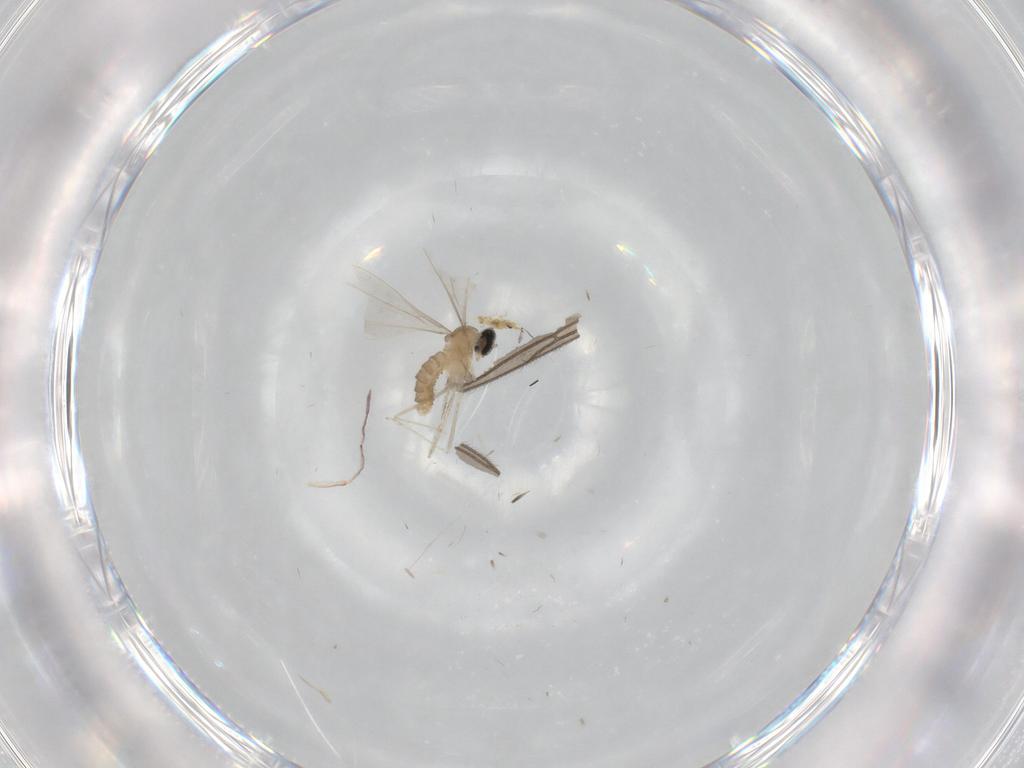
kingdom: Animalia
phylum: Arthropoda
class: Insecta
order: Diptera
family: Cecidomyiidae
